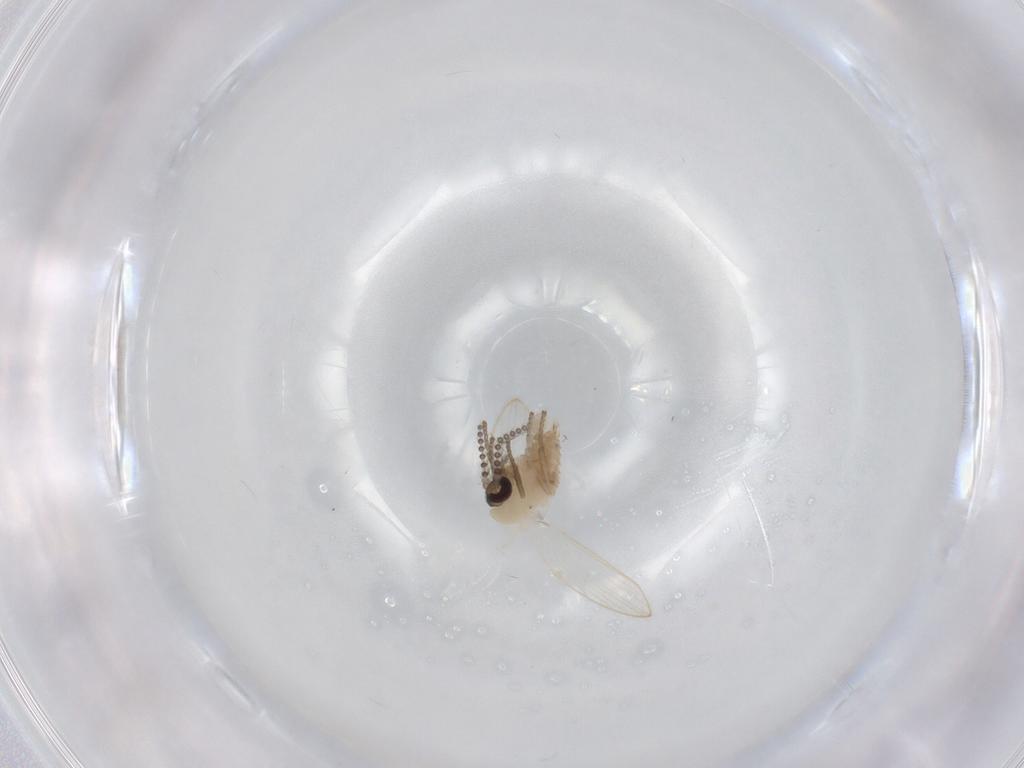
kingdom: Animalia
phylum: Arthropoda
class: Insecta
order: Diptera
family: Psychodidae
